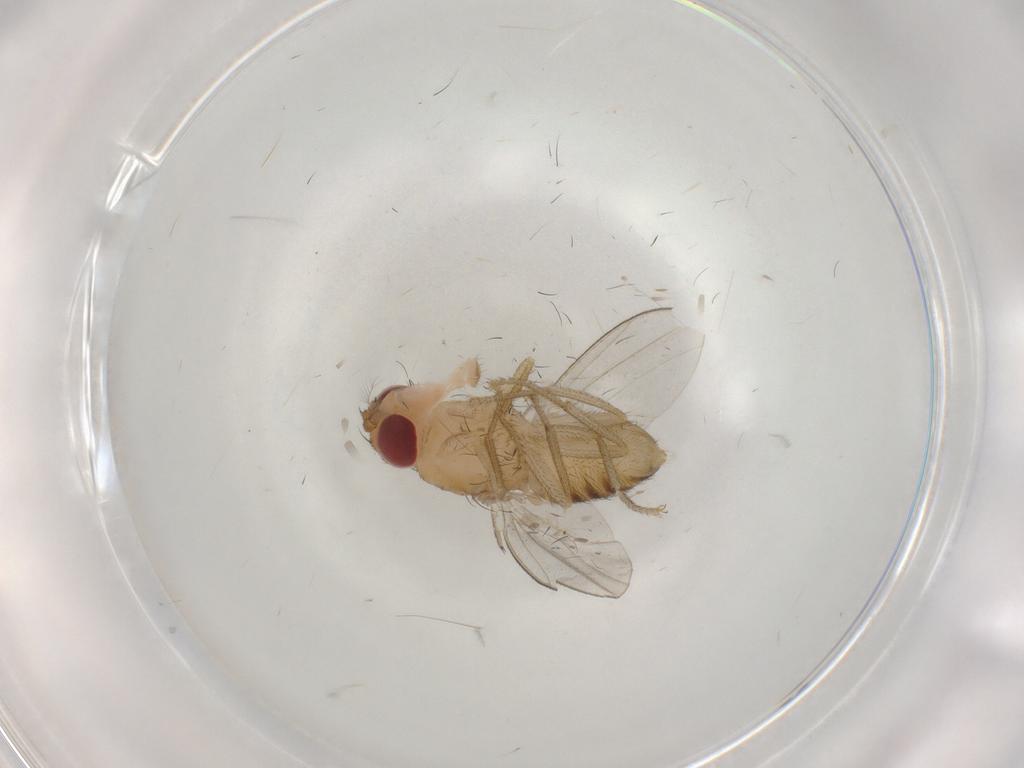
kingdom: Animalia
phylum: Arthropoda
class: Insecta
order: Diptera
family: Drosophilidae
